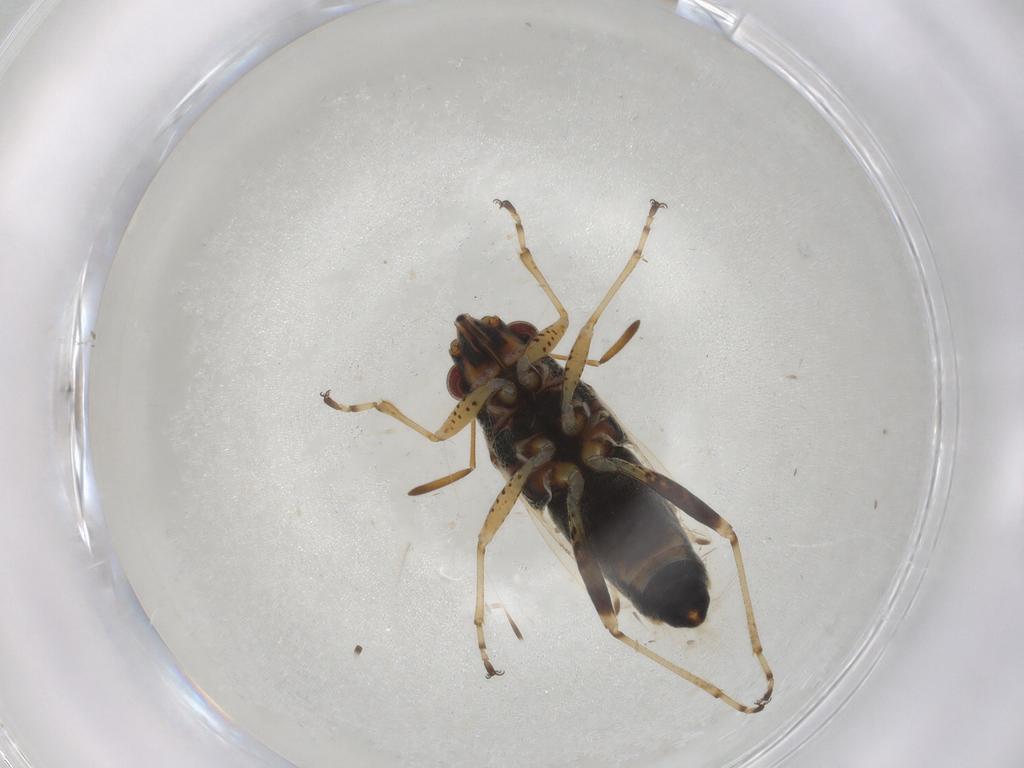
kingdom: Animalia
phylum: Arthropoda
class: Insecta
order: Hemiptera
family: Lygaeidae
